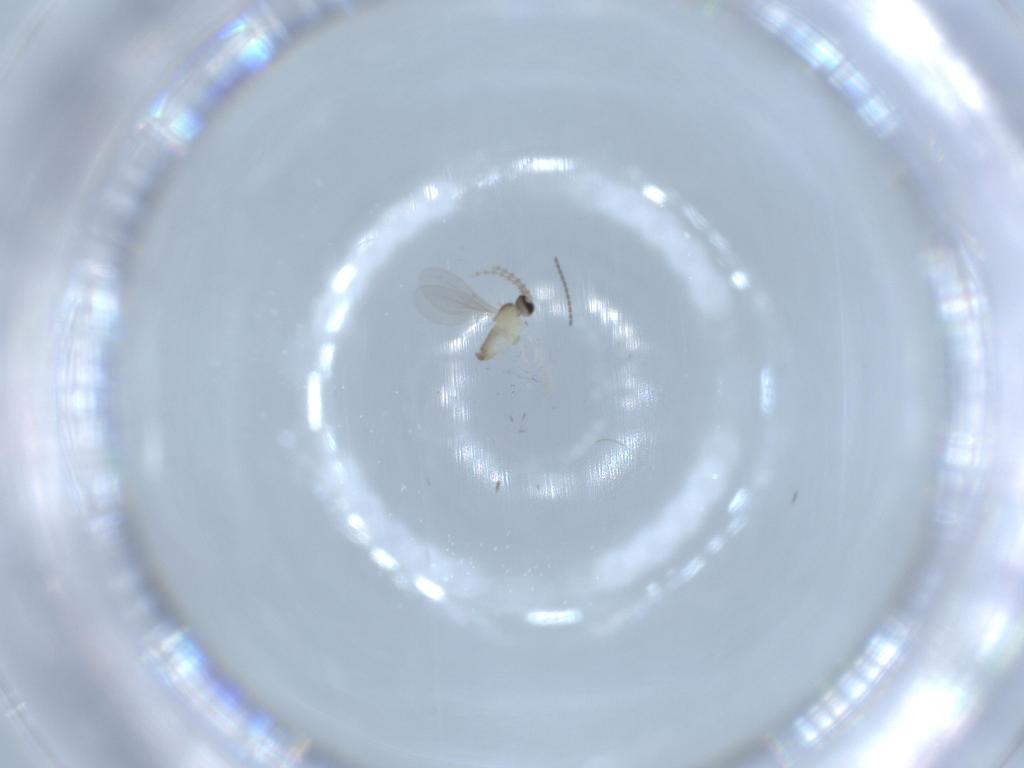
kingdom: Animalia
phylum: Arthropoda
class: Insecta
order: Diptera
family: Cecidomyiidae
